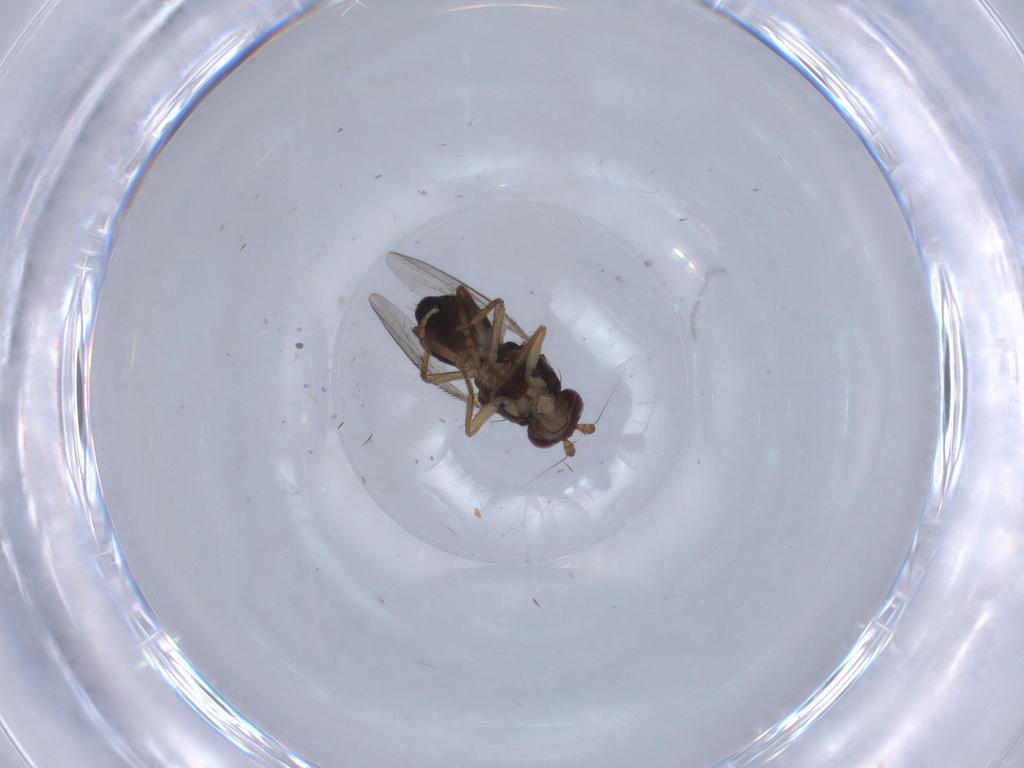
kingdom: Animalia
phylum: Arthropoda
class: Insecta
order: Diptera
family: Sphaeroceridae
